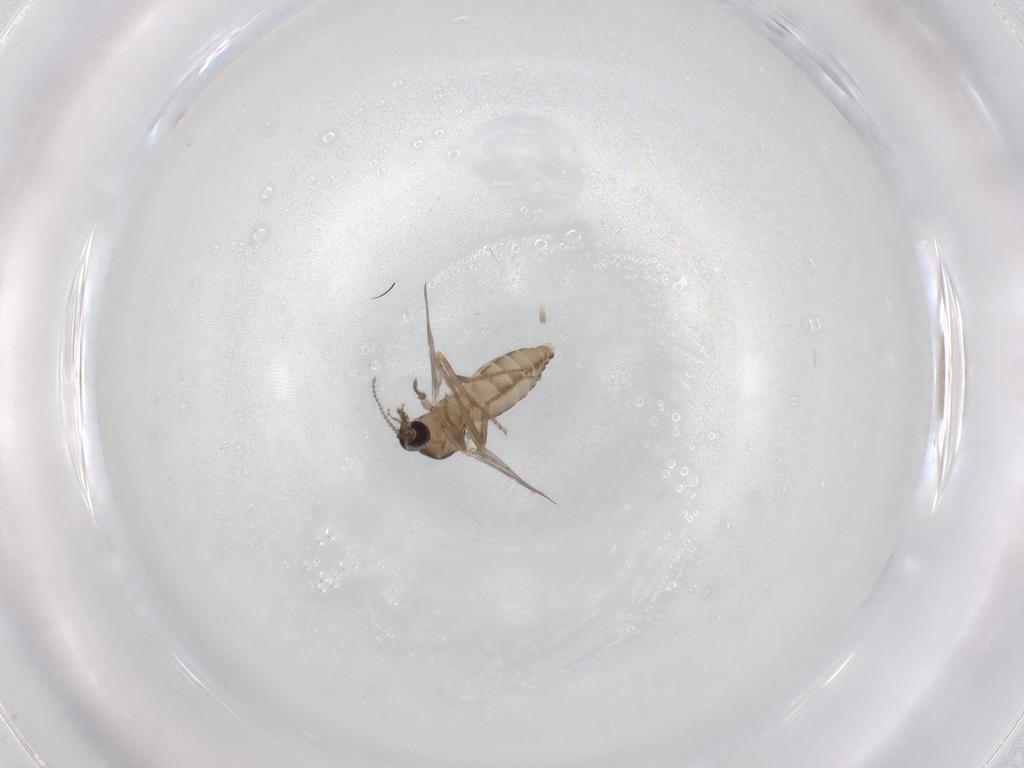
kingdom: Animalia
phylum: Arthropoda
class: Insecta
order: Diptera
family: Ceratopogonidae
